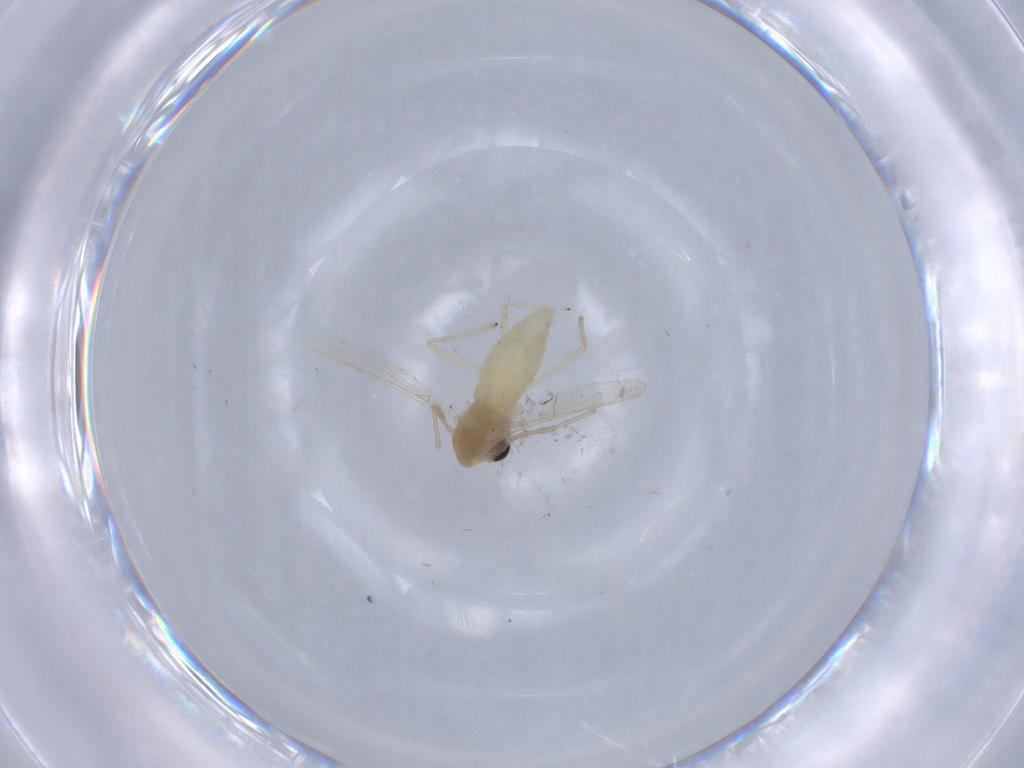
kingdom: Animalia
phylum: Arthropoda
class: Insecta
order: Diptera
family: Chironomidae
